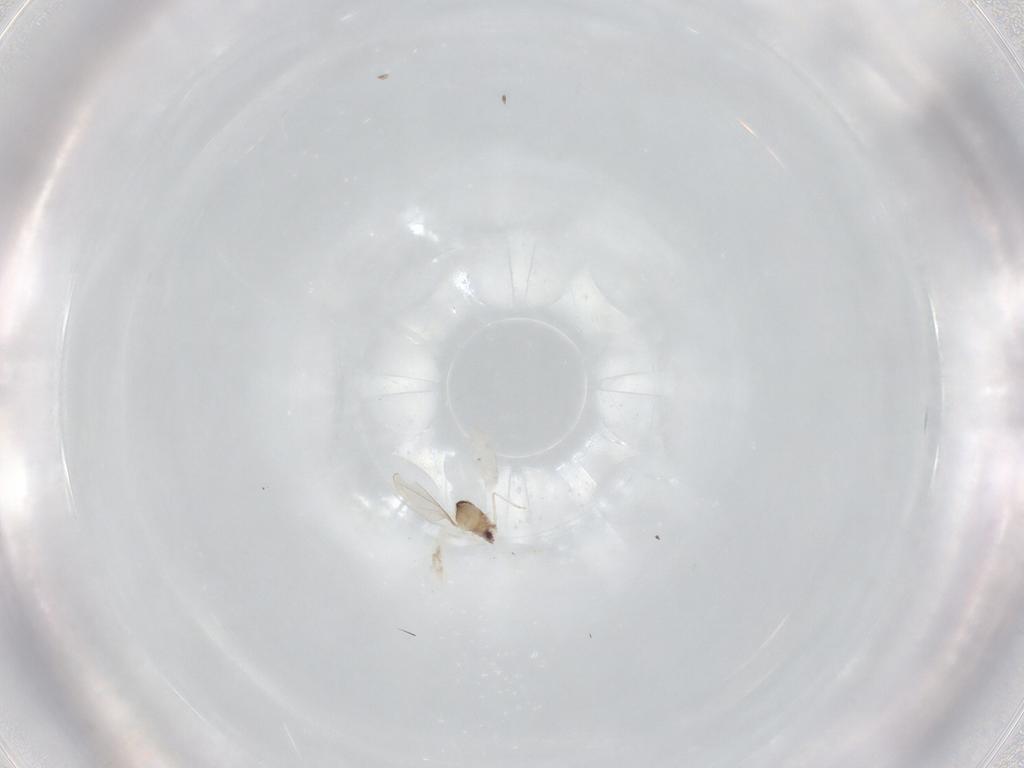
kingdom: Animalia
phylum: Arthropoda
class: Insecta
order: Diptera
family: Cecidomyiidae
